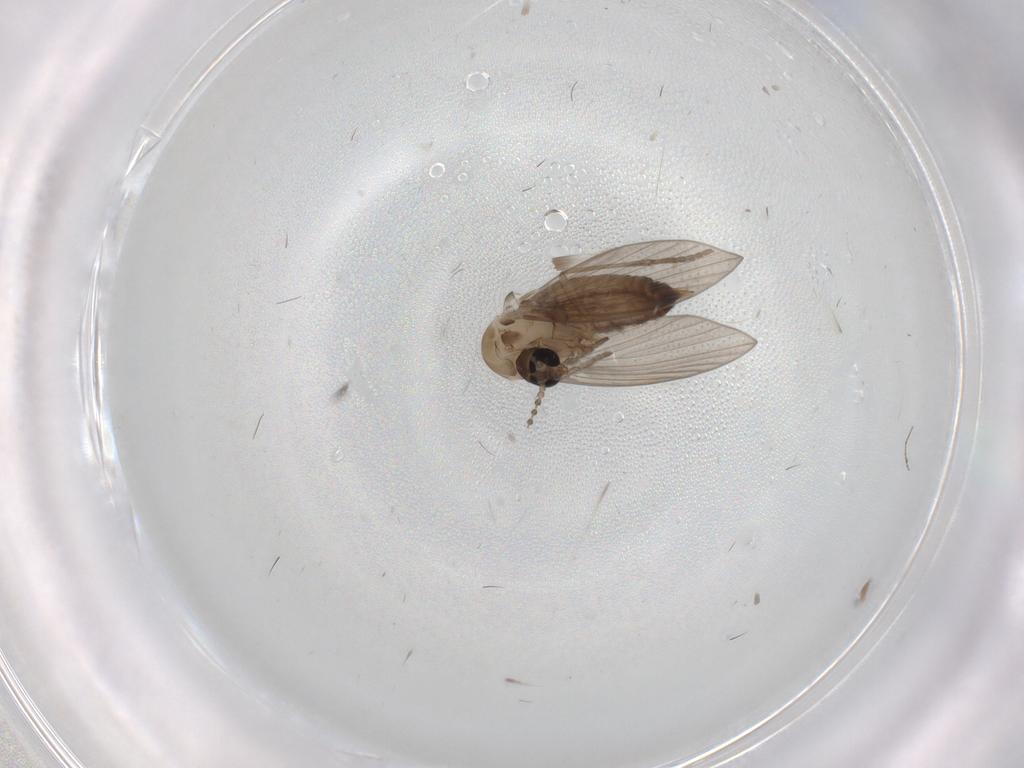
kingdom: Animalia
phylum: Arthropoda
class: Insecta
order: Diptera
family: Psychodidae
